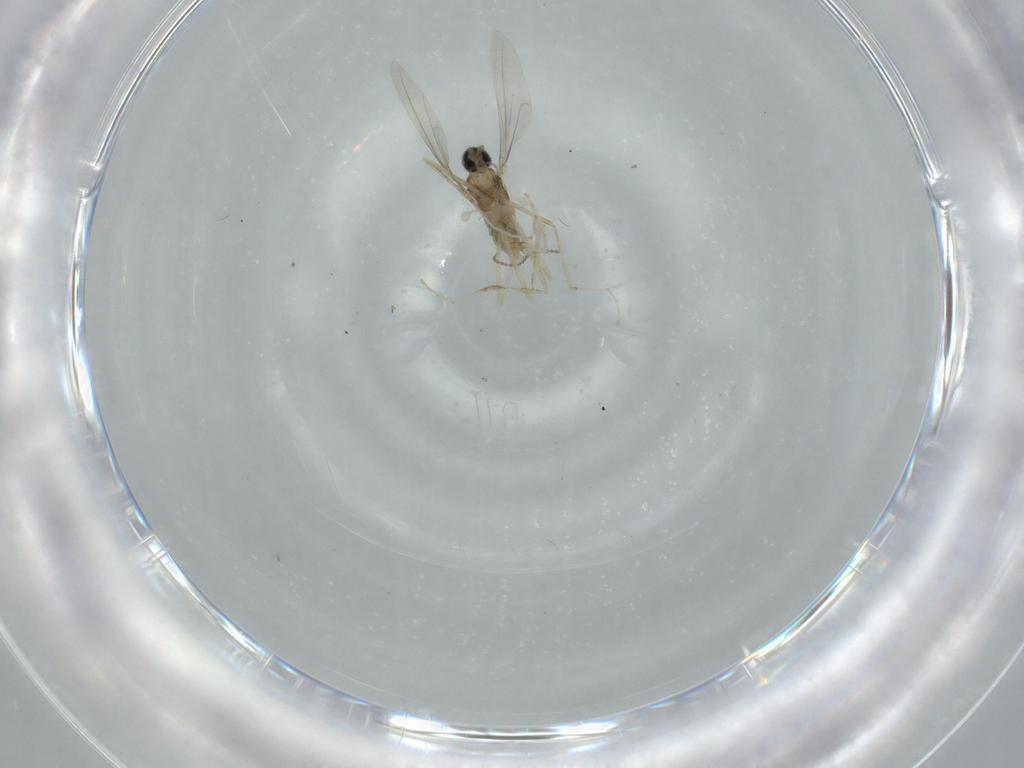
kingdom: Animalia
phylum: Arthropoda
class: Insecta
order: Diptera
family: Cecidomyiidae
